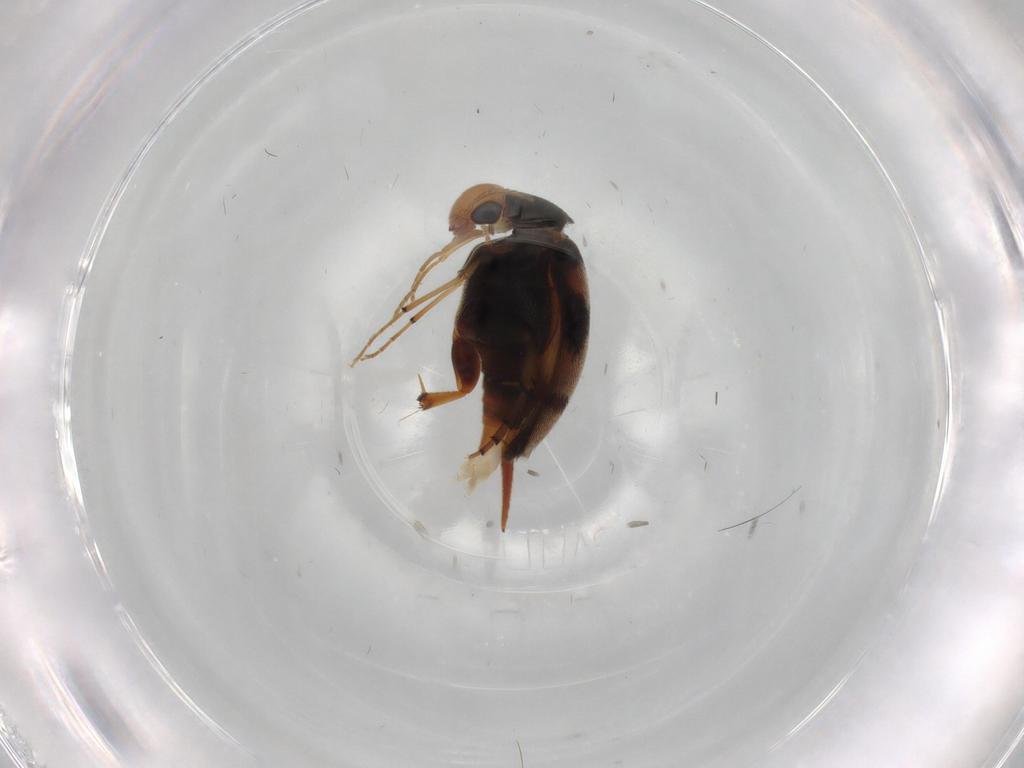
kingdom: Animalia
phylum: Arthropoda
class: Insecta
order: Coleoptera
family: Mordellidae
